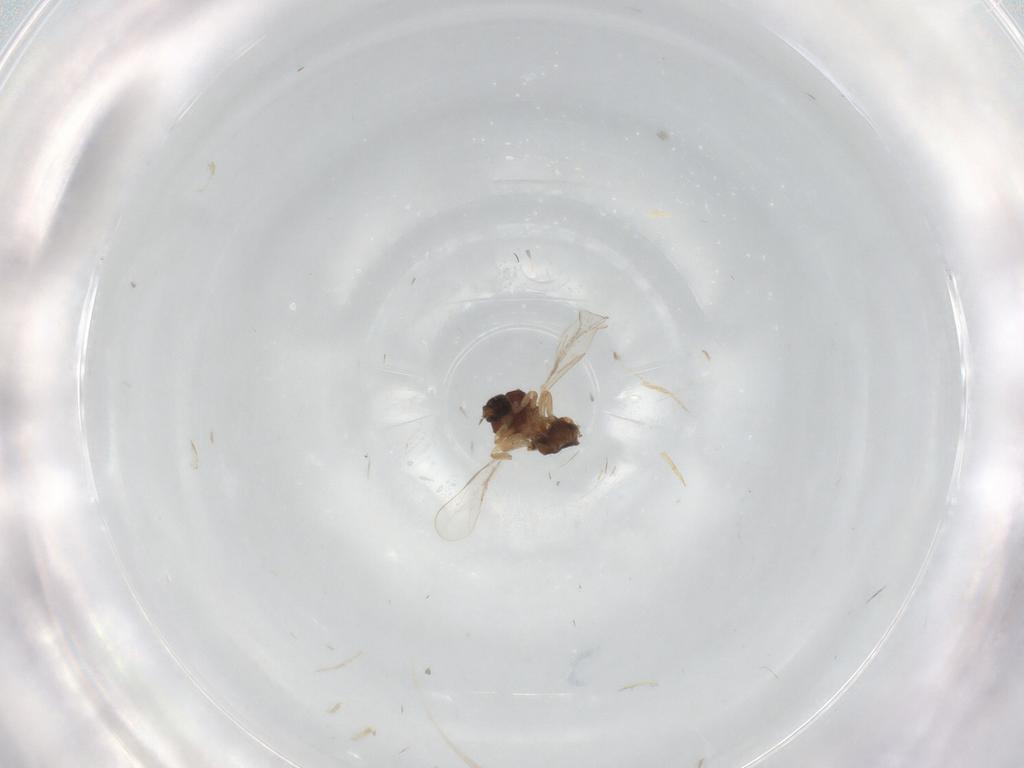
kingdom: Animalia
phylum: Arthropoda
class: Insecta
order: Diptera
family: Ceratopogonidae
